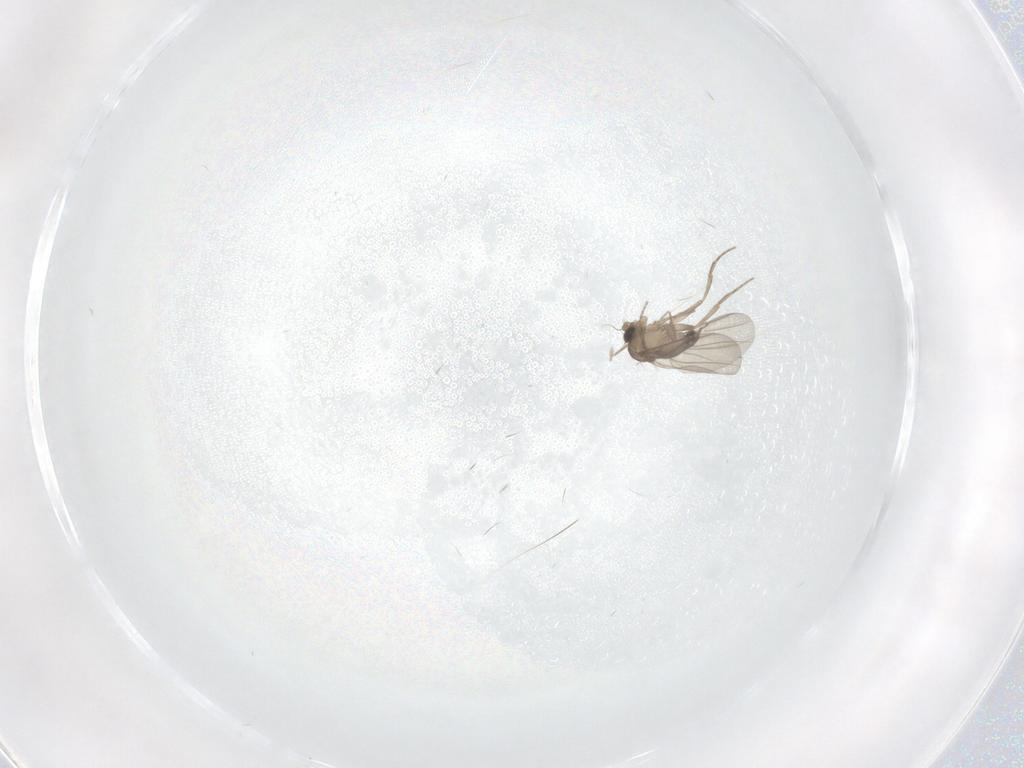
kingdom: Animalia
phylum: Arthropoda
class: Insecta
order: Diptera
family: Phoridae
